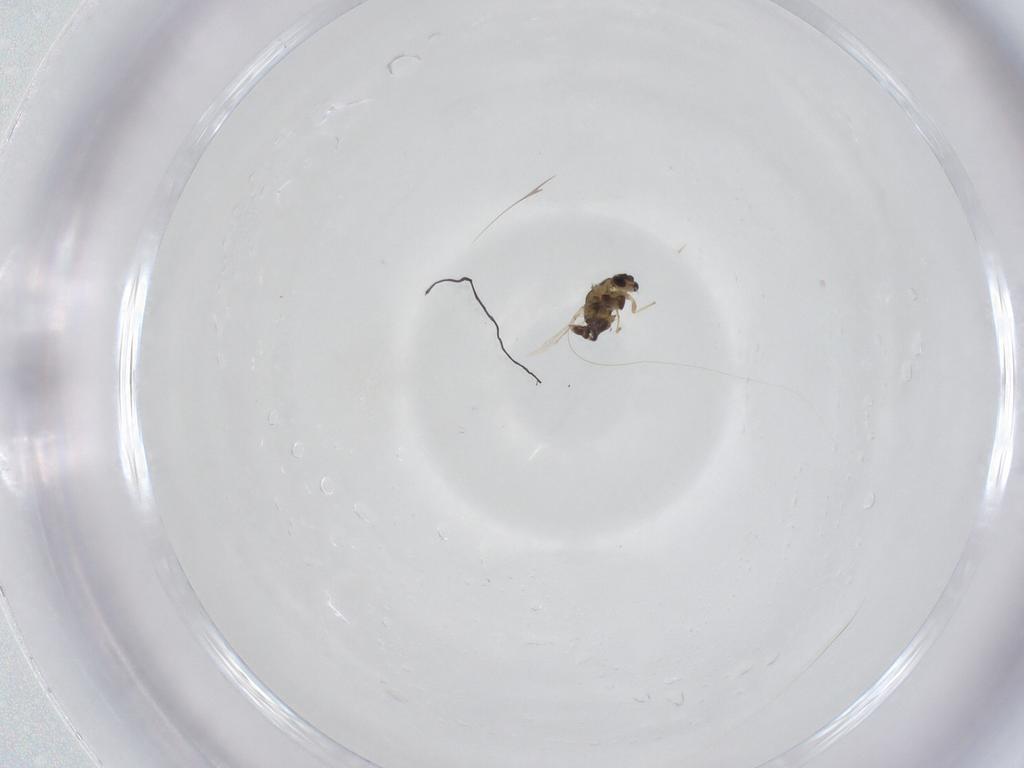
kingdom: Animalia
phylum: Arthropoda
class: Insecta
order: Diptera
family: Chironomidae
